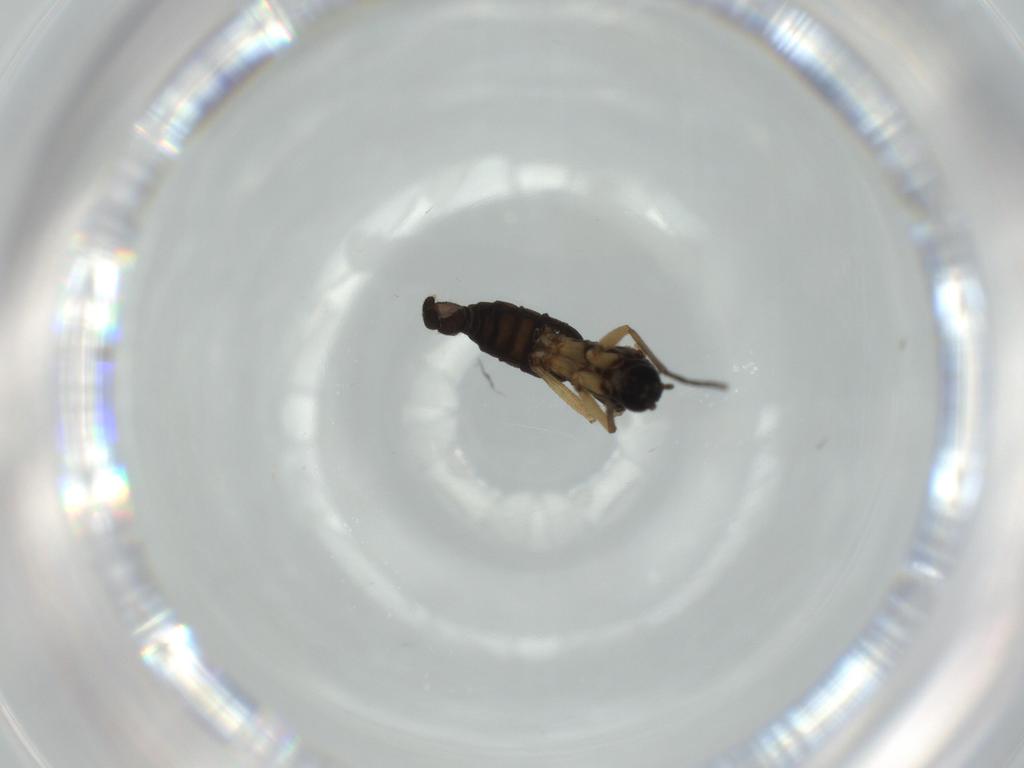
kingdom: Animalia
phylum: Arthropoda
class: Insecta
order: Diptera
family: Sciaridae
